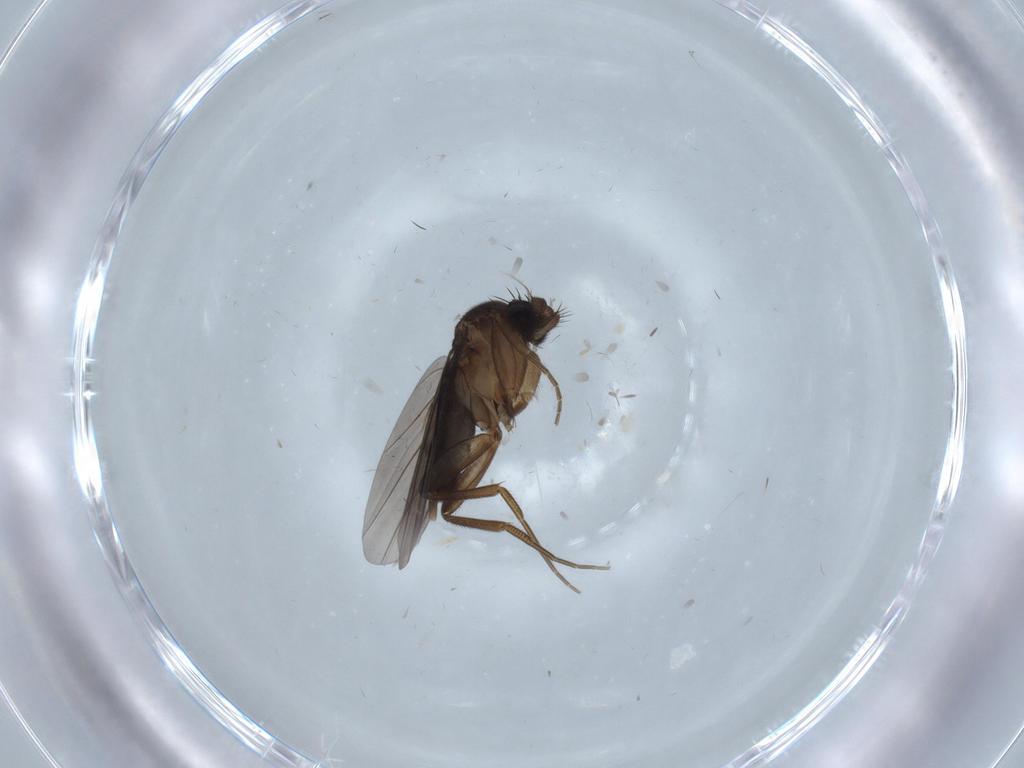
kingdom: Animalia
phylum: Arthropoda
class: Insecta
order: Diptera
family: Cecidomyiidae
